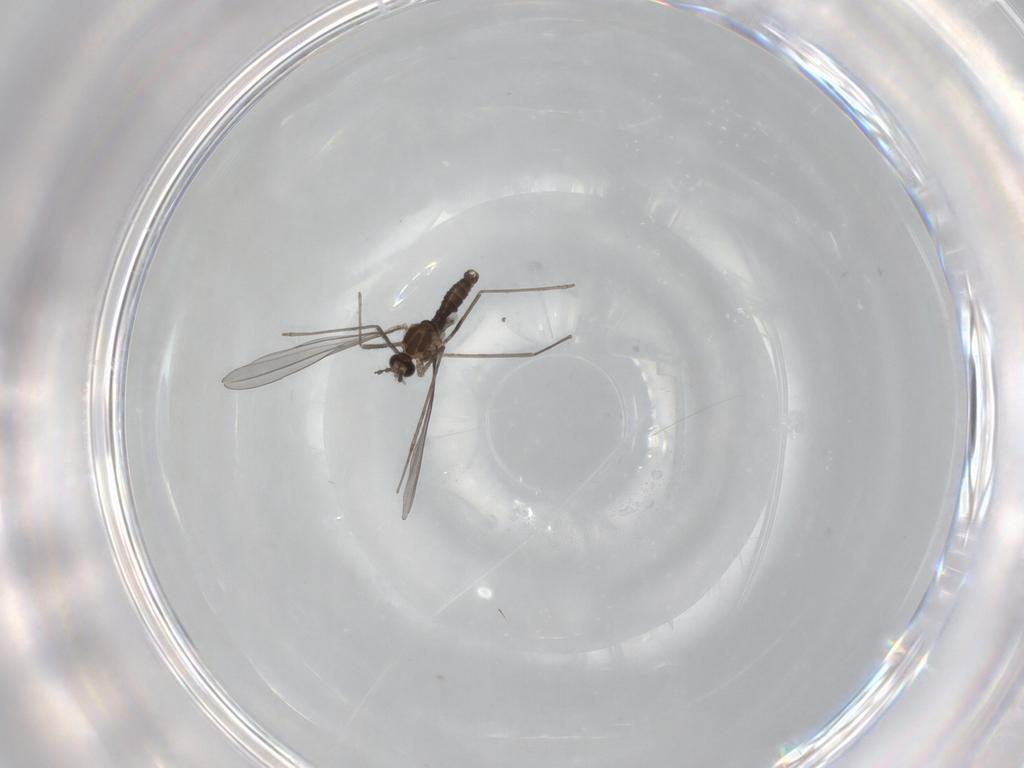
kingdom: Animalia
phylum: Arthropoda
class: Insecta
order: Diptera
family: Cecidomyiidae
